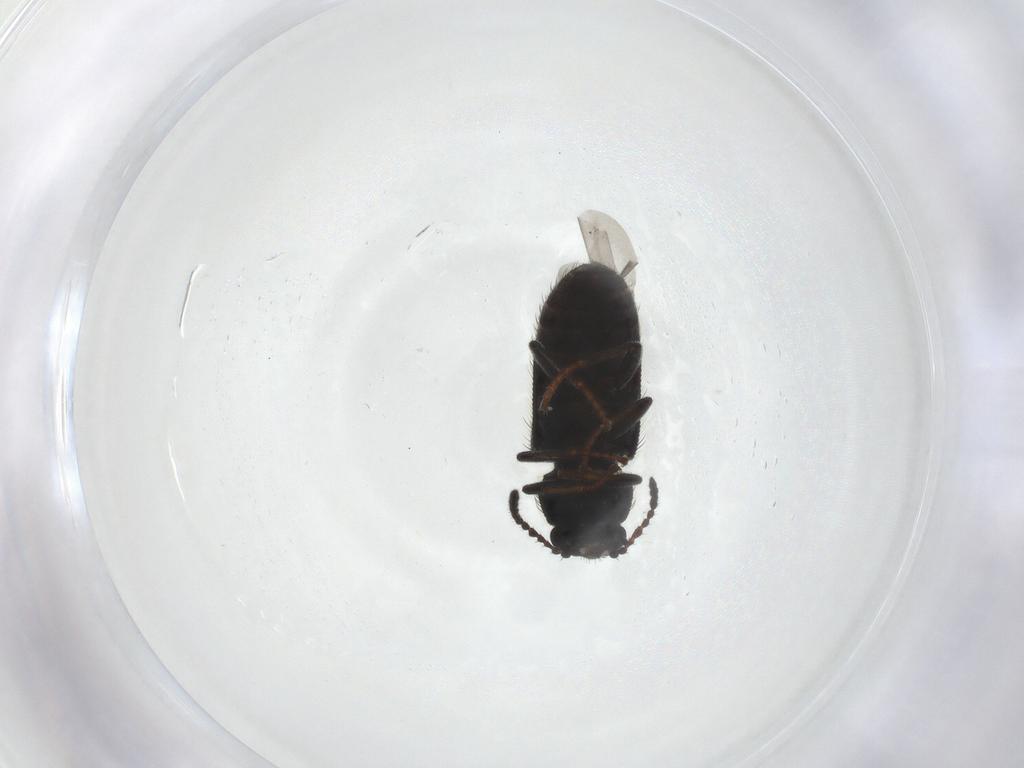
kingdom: Animalia
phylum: Arthropoda
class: Insecta
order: Coleoptera
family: Melyridae
